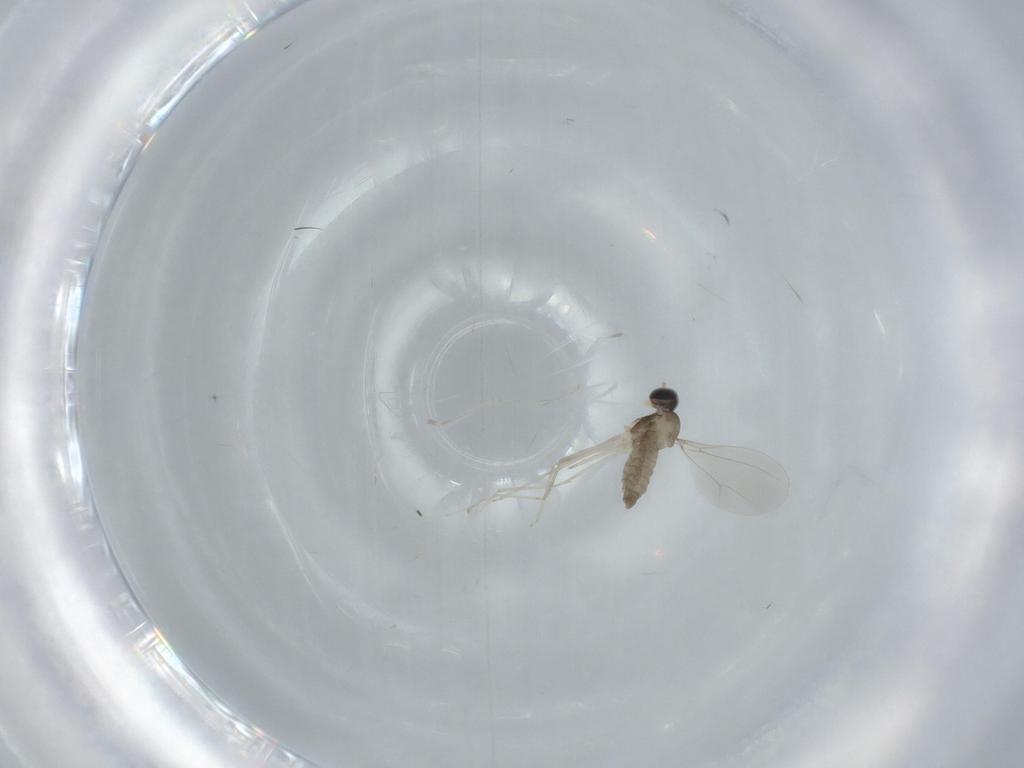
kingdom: Animalia
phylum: Arthropoda
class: Insecta
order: Diptera
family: Cecidomyiidae
